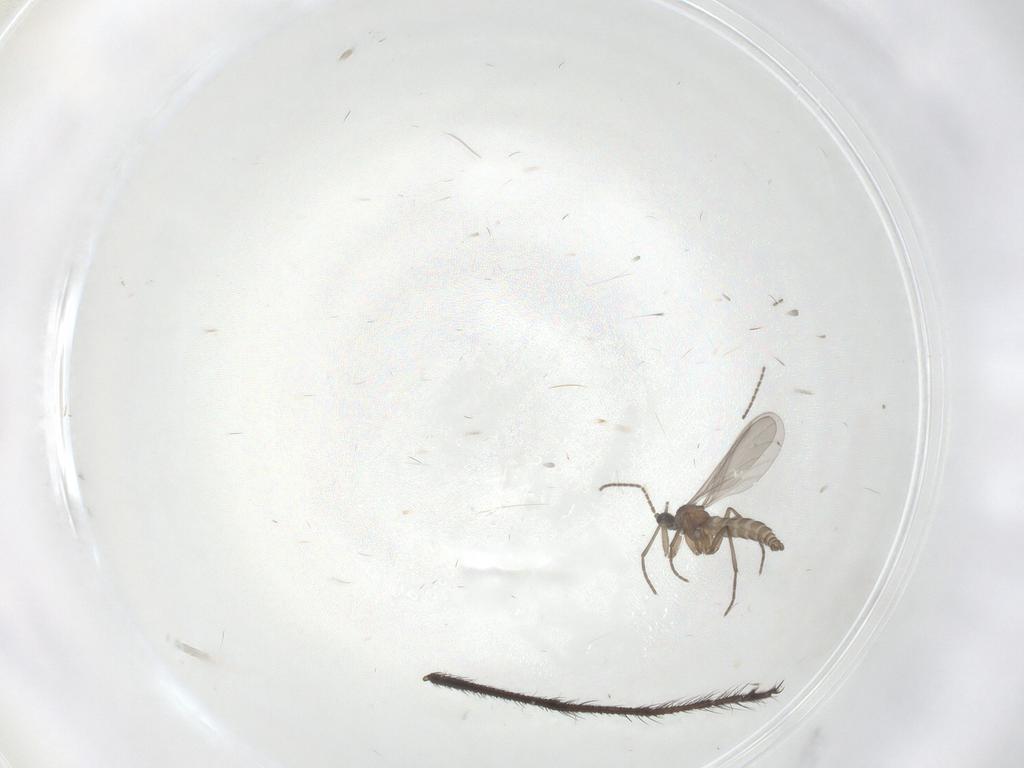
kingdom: Animalia
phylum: Arthropoda
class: Insecta
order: Diptera
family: Sciaridae
